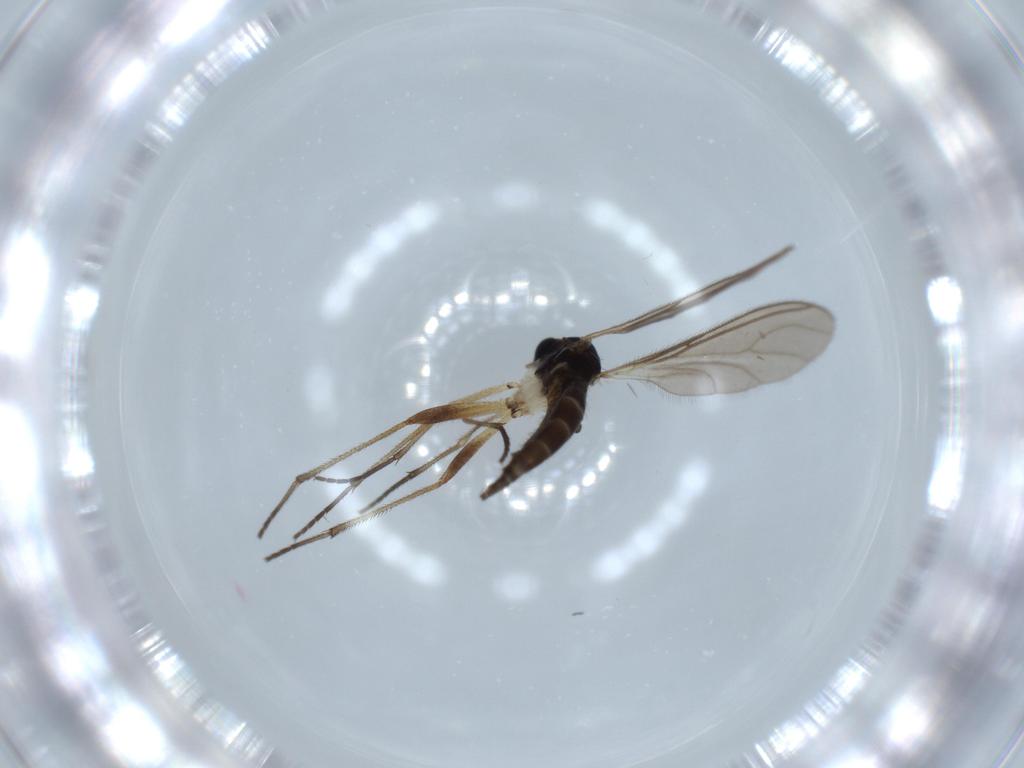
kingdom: Animalia
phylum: Arthropoda
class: Insecta
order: Diptera
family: Sciaridae
